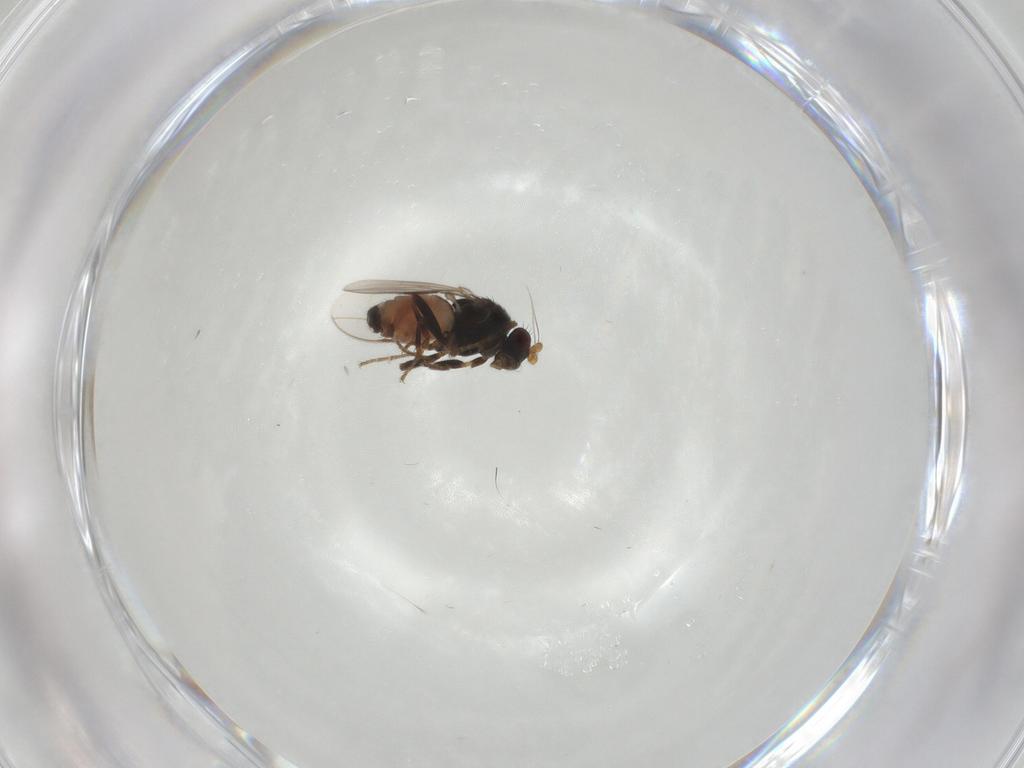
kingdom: Animalia
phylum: Arthropoda
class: Insecta
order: Diptera
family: Sphaeroceridae
